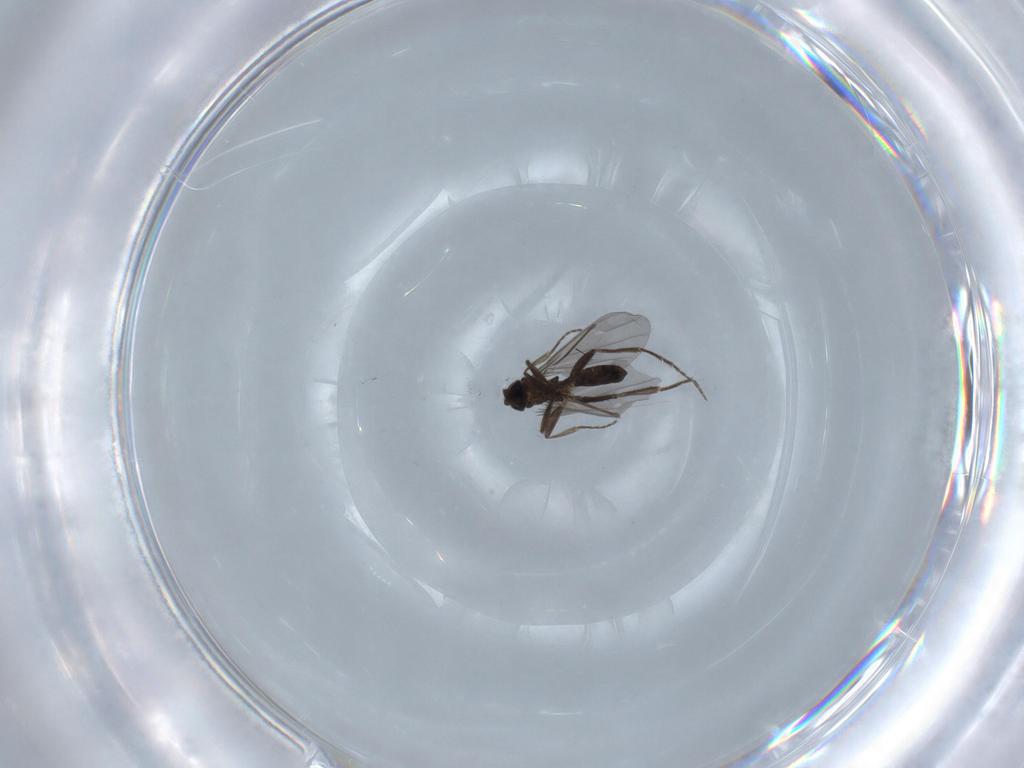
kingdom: Animalia
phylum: Arthropoda
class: Insecta
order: Diptera
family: Chironomidae
